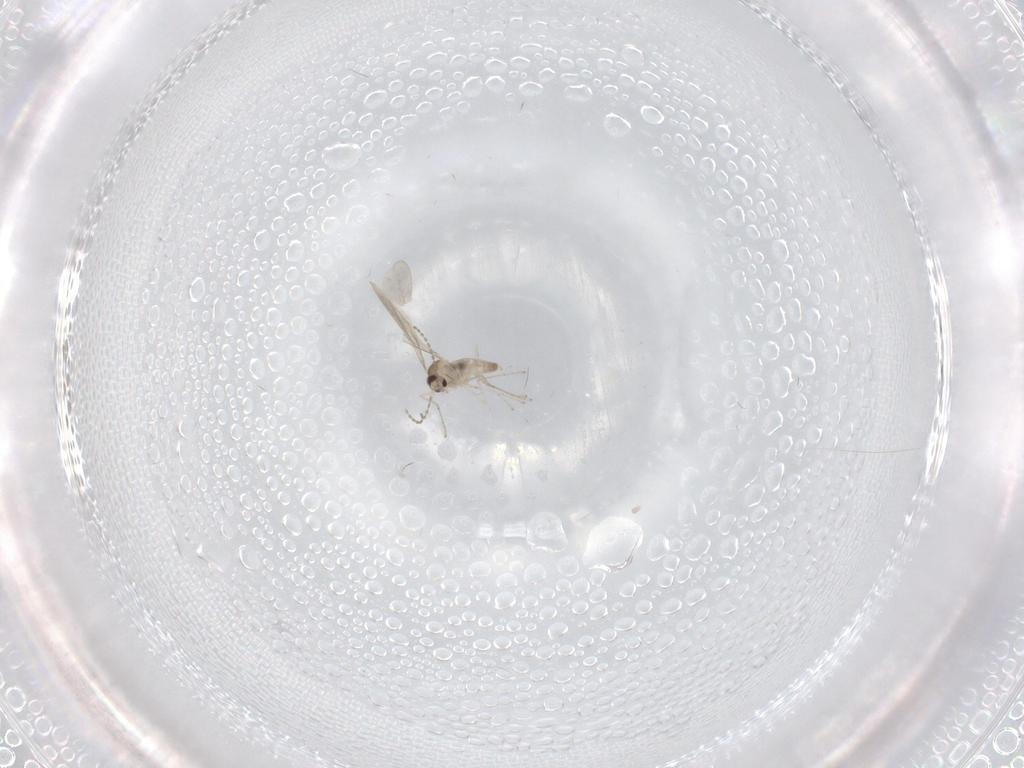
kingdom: Animalia
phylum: Arthropoda
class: Insecta
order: Diptera
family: Cecidomyiidae
